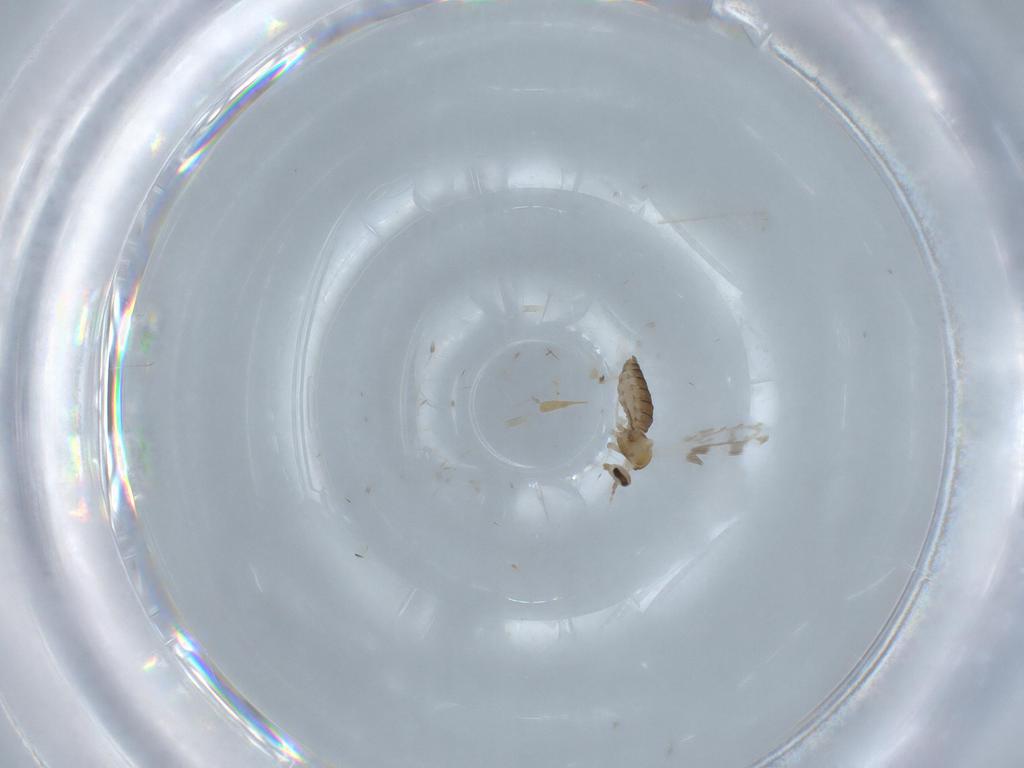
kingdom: Animalia
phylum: Arthropoda
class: Insecta
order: Diptera
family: Cecidomyiidae
